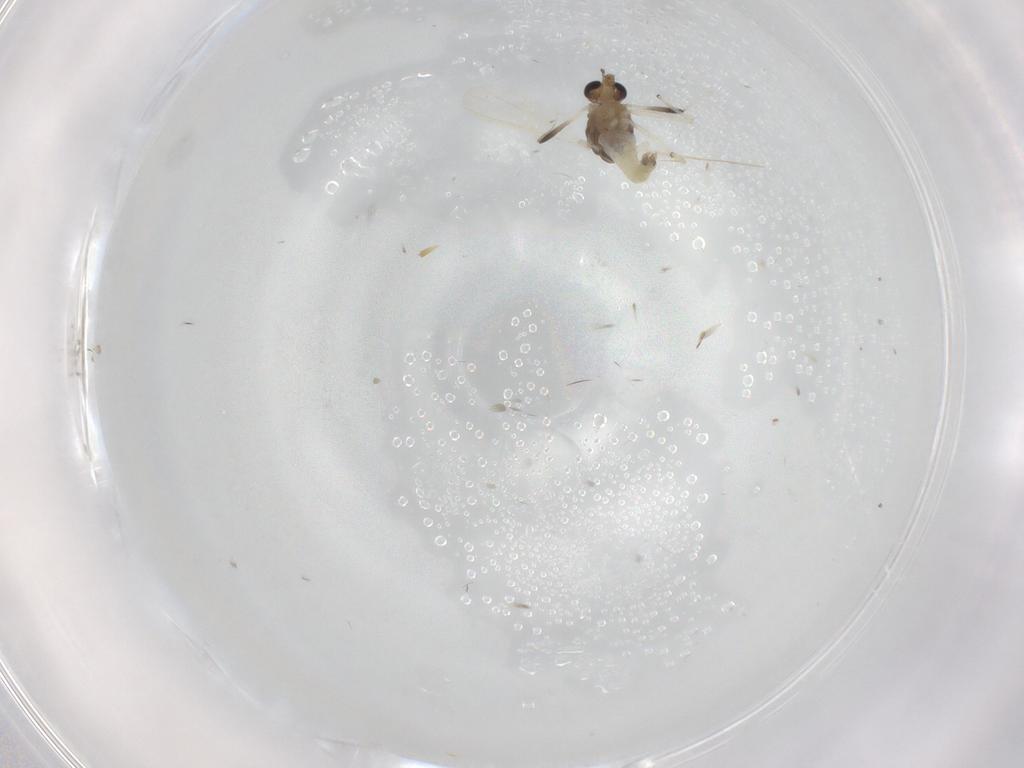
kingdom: Animalia
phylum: Arthropoda
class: Insecta
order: Diptera
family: Chironomidae
